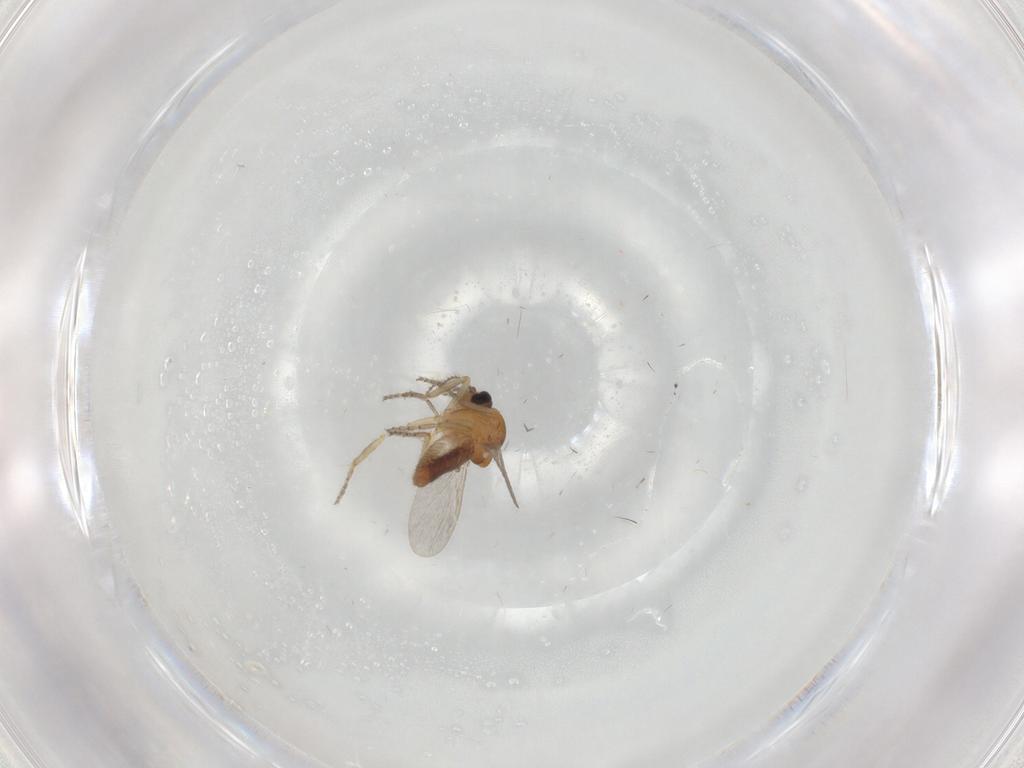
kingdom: Animalia
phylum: Arthropoda
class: Insecta
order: Diptera
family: Ceratopogonidae
